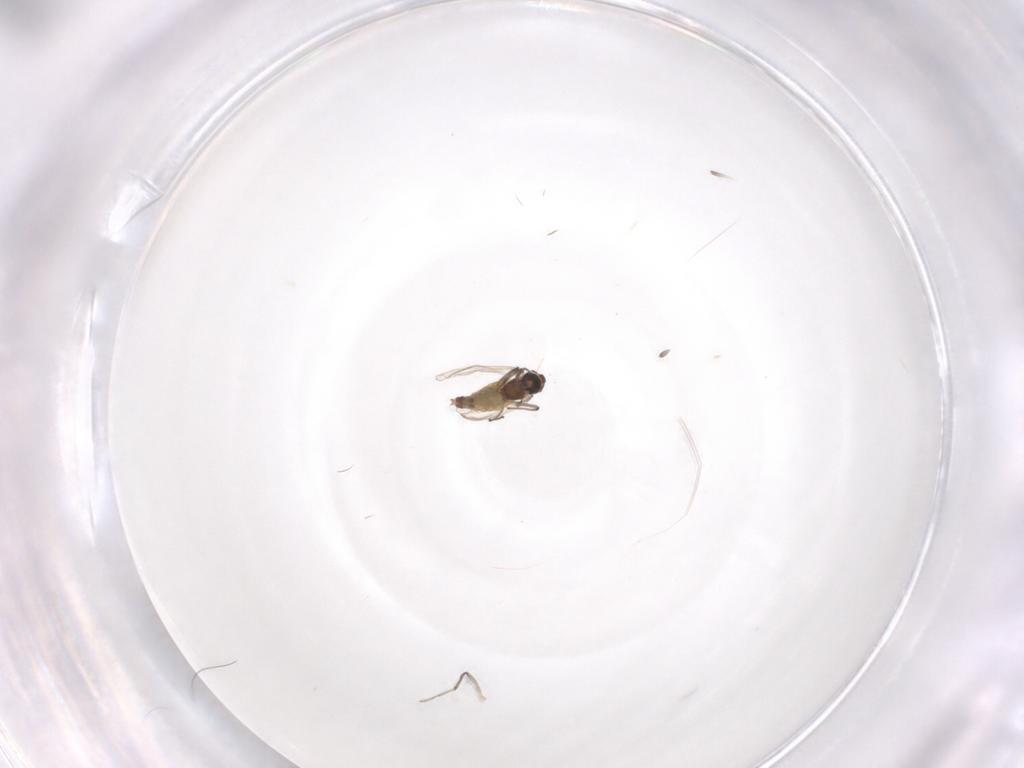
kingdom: Animalia
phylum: Arthropoda
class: Insecta
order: Diptera
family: Chironomidae
